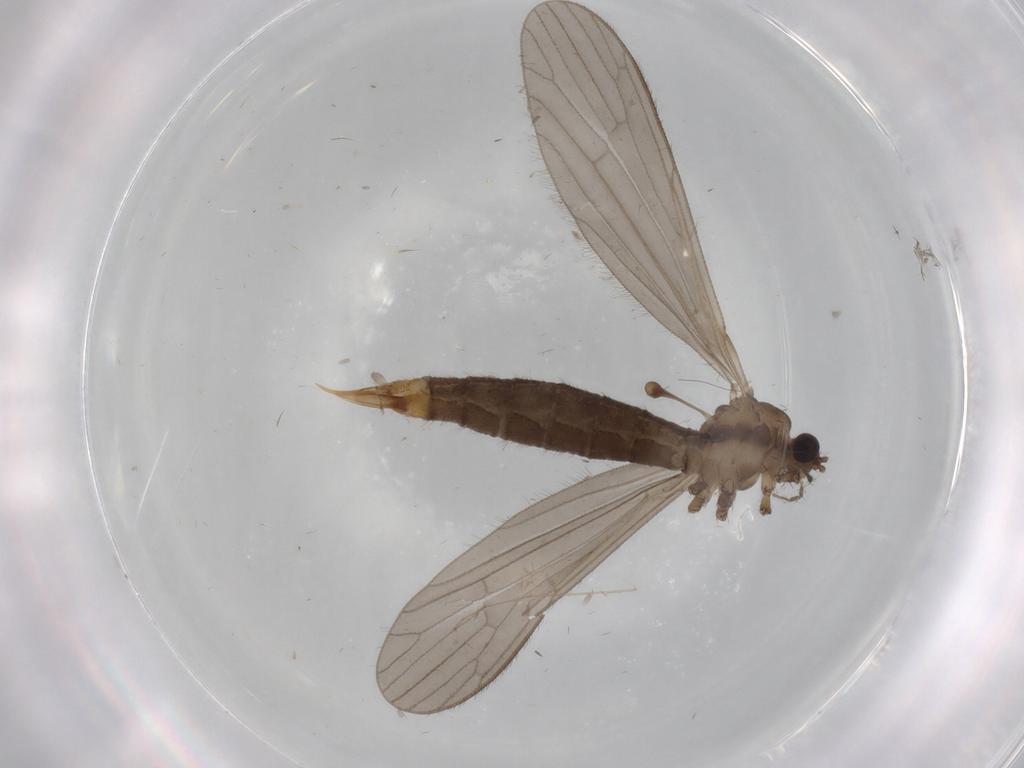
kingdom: Animalia
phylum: Arthropoda
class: Insecta
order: Diptera
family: Limoniidae
